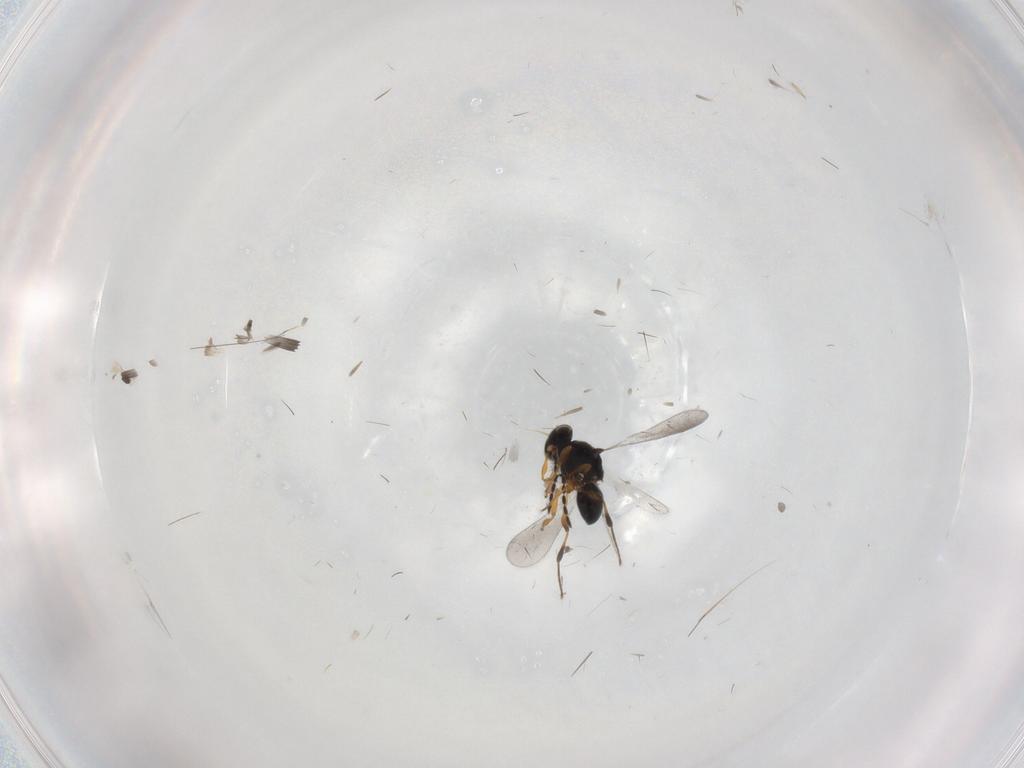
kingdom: Animalia
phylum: Arthropoda
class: Insecta
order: Hymenoptera
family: Platygastridae
